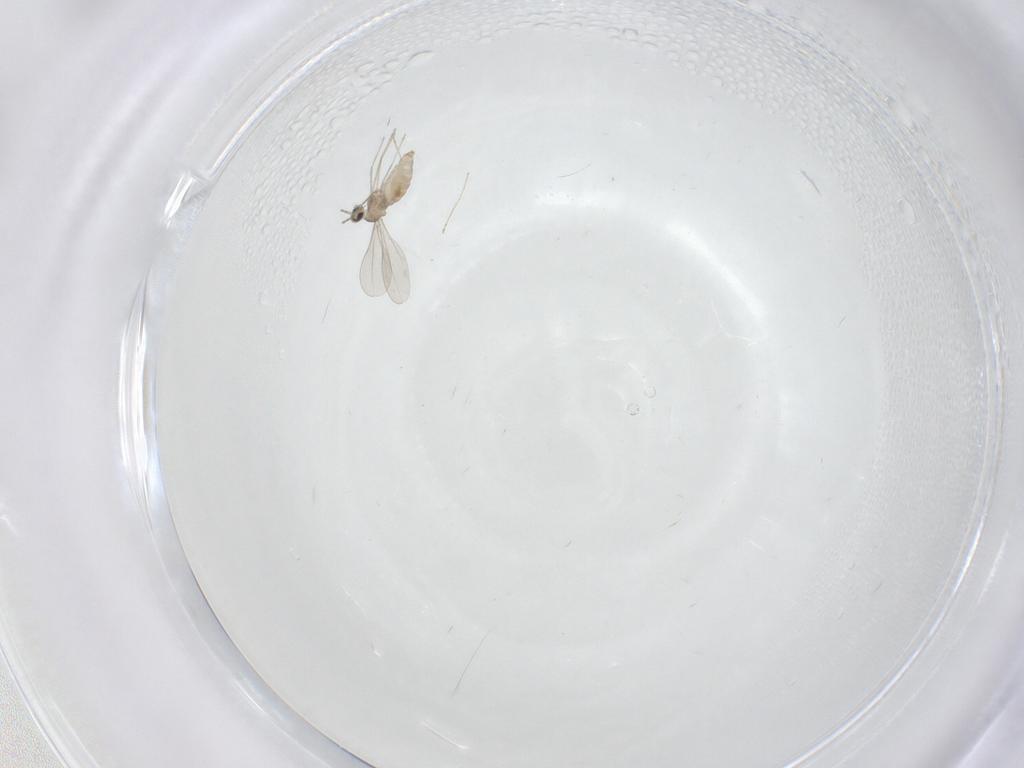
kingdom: Animalia
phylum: Arthropoda
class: Insecta
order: Diptera
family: Cecidomyiidae
